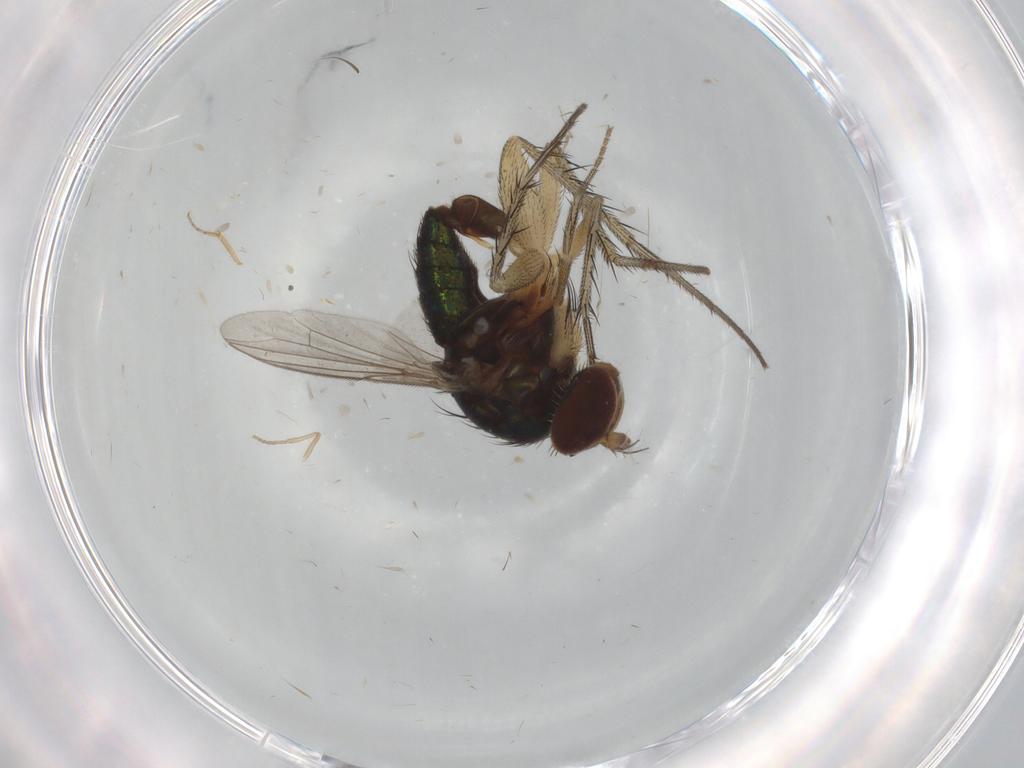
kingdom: Animalia
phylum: Arthropoda
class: Insecta
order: Diptera
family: Dolichopodidae
